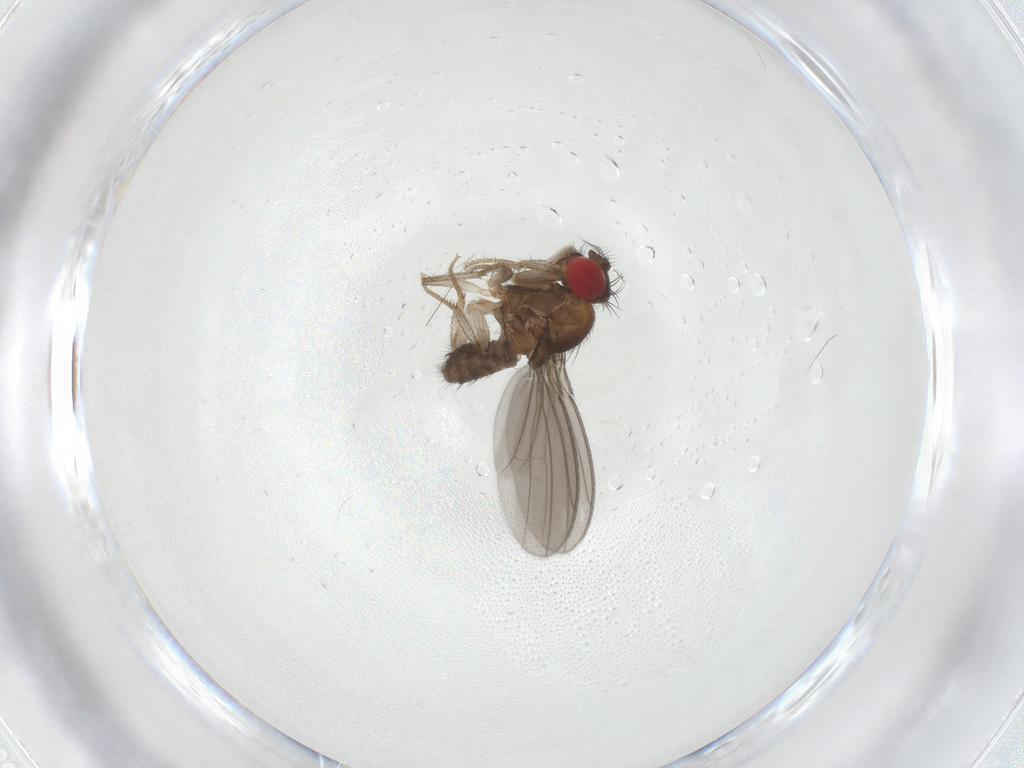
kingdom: Animalia
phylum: Arthropoda
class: Insecta
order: Diptera
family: Drosophilidae
